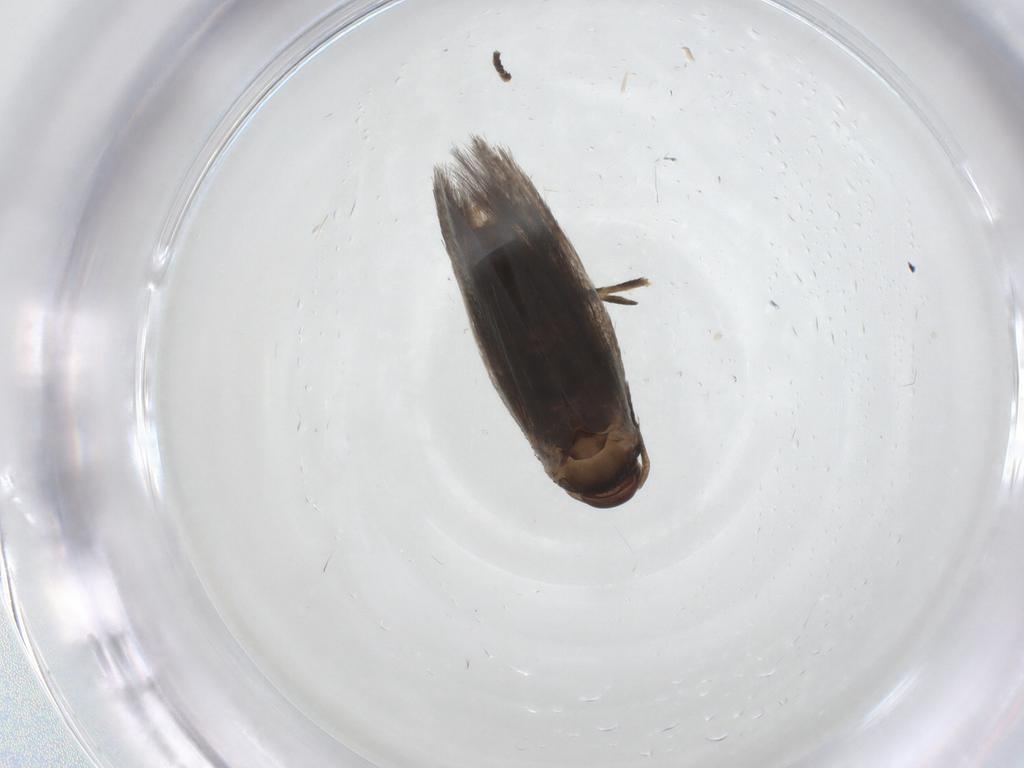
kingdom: Animalia
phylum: Arthropoda
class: Insecta
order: Lepidoptera
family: Elachistidae
